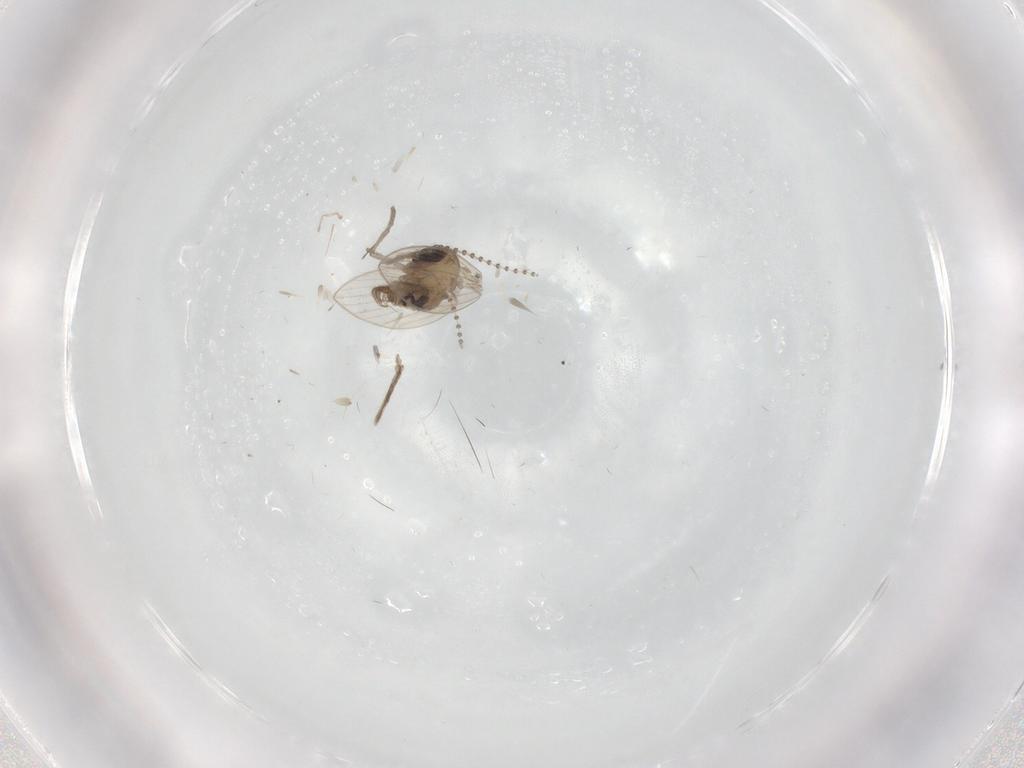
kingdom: Animalia
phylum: Arthropoda
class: Insecta
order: Diptera
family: Psychodidae
